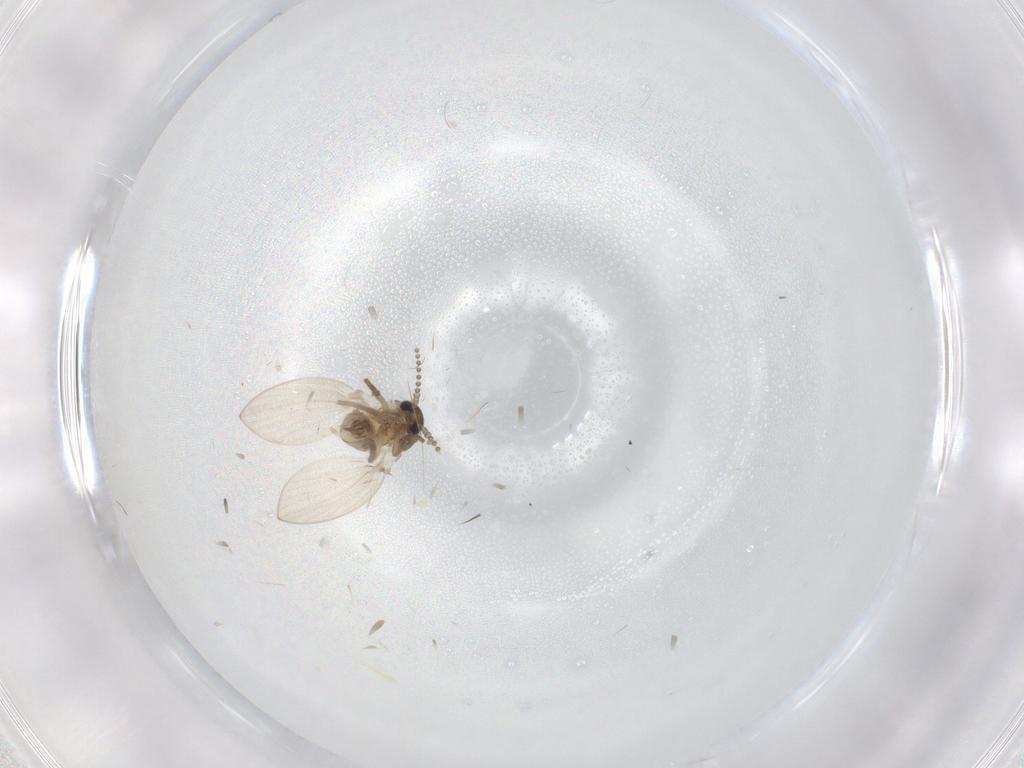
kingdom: Animalia
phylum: Arthropoda
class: Insecta
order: Diptera
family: Psychodidae
